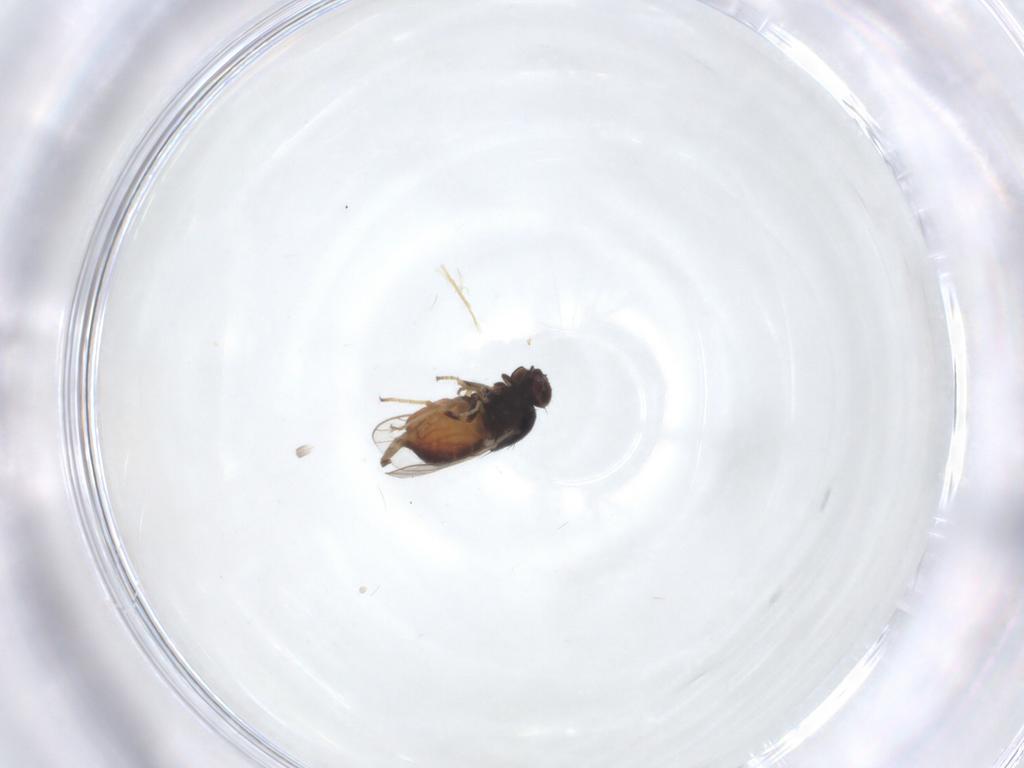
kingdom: Animalia
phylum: Arthropoda
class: Insecta
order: Diptera
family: Chloropidae
